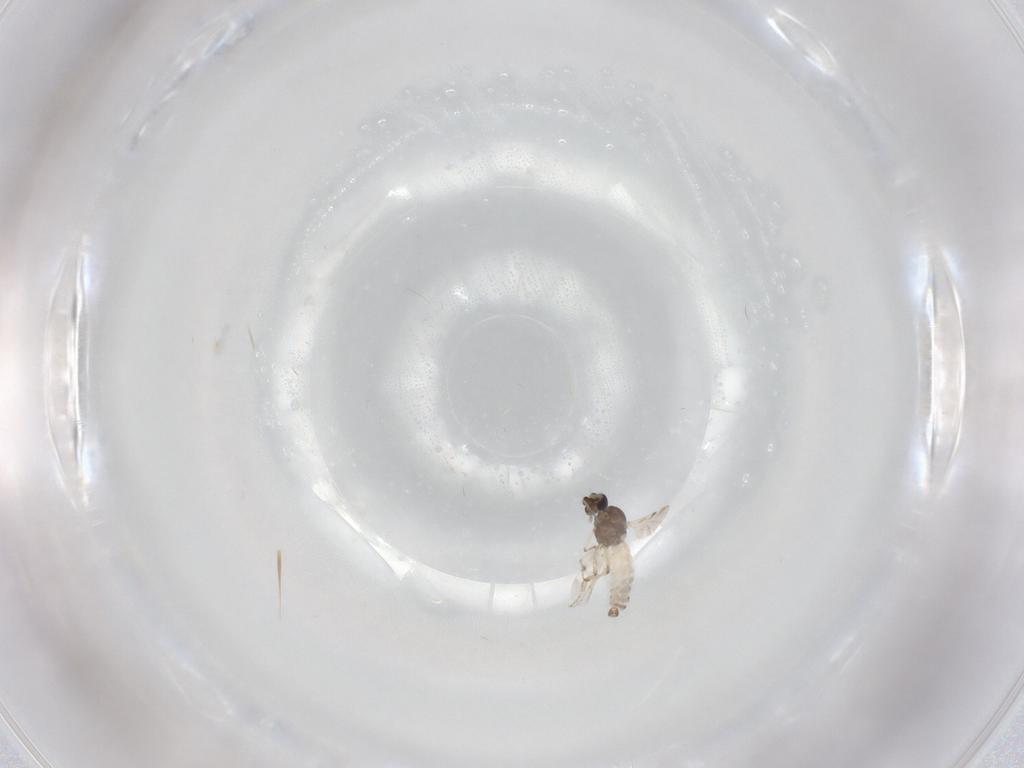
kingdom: Animalia
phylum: Arthropoda
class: Insecta
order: Diptera
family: Chironomidae
